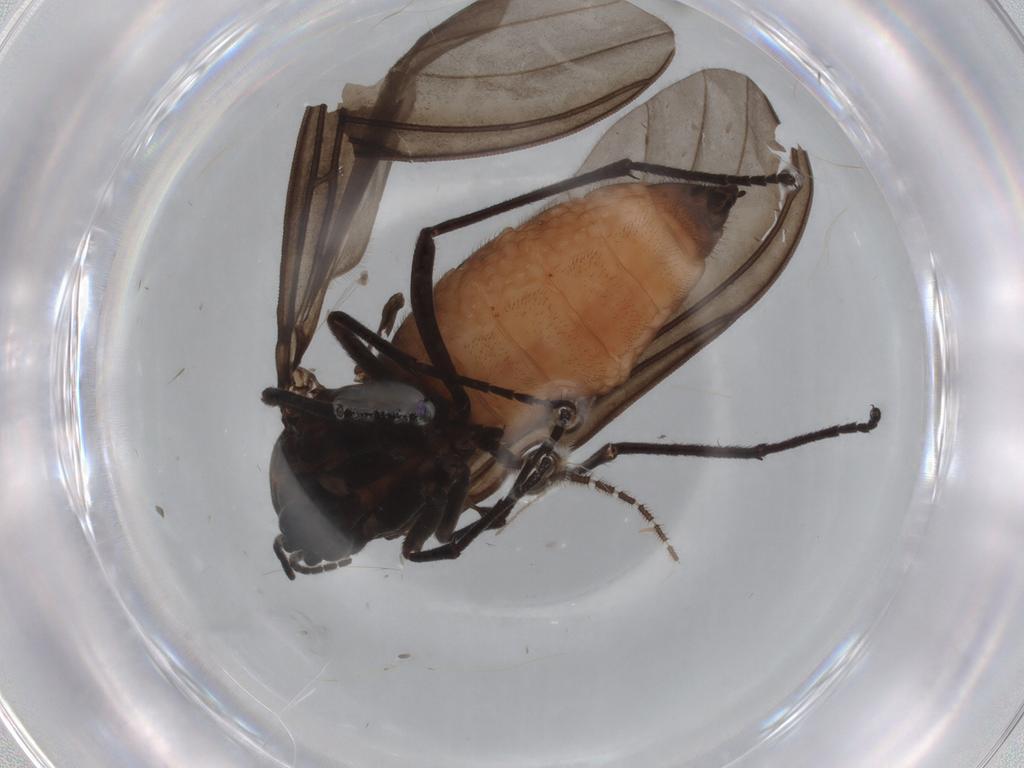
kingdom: Animalia
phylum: Arthropoda
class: Insecta
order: Diptera
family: Sciaridae
